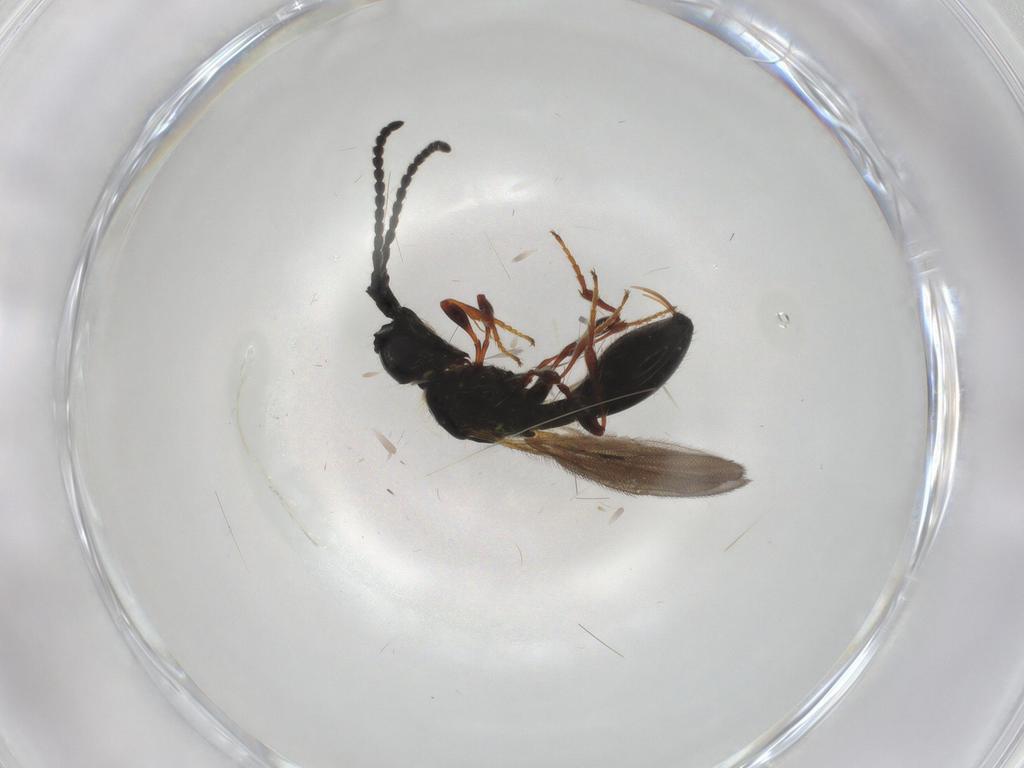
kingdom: Animalia
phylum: Arthropoda
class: Insecta
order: Hymenoptera
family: Diapriidae
